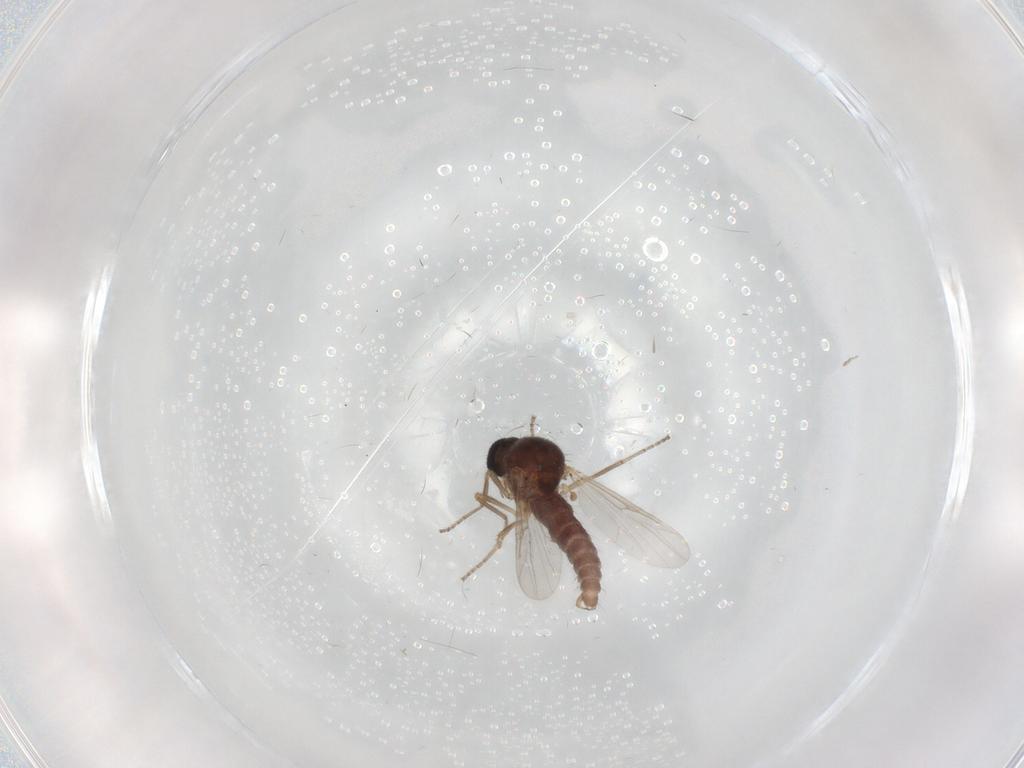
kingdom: Animalia
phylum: Arthropoda
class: Insecta
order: Diptera
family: Ceratopogonidae
